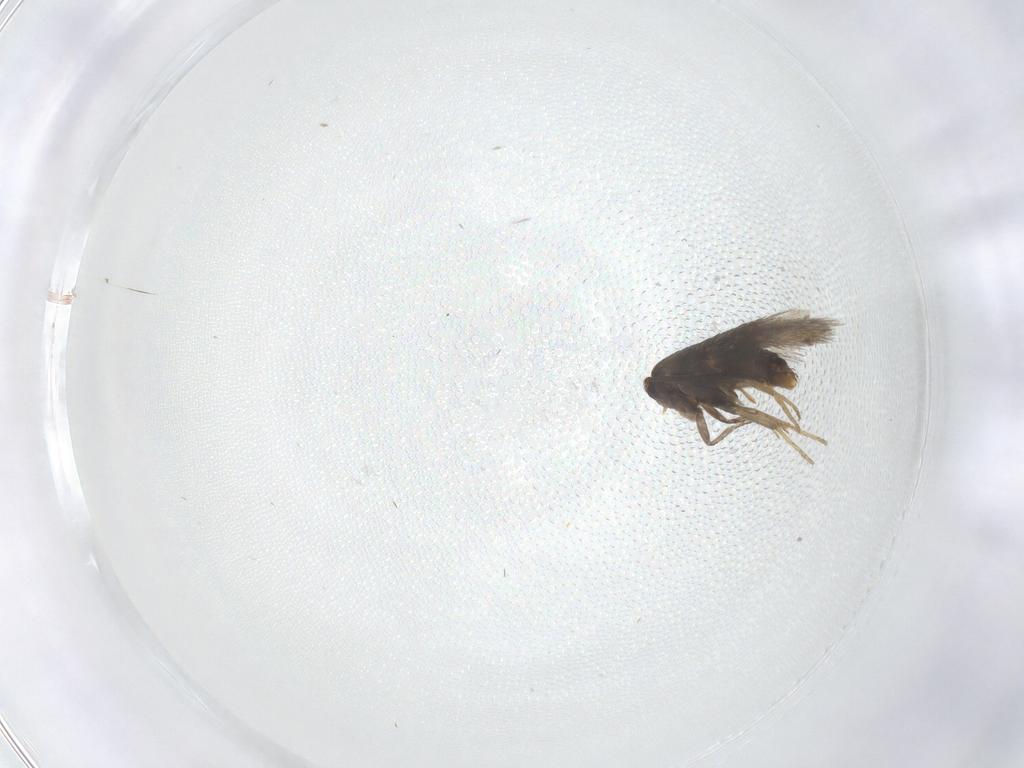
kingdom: Animalia
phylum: Arthropoda
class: Insecta
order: Lepidoptera
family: Nepticulidae
